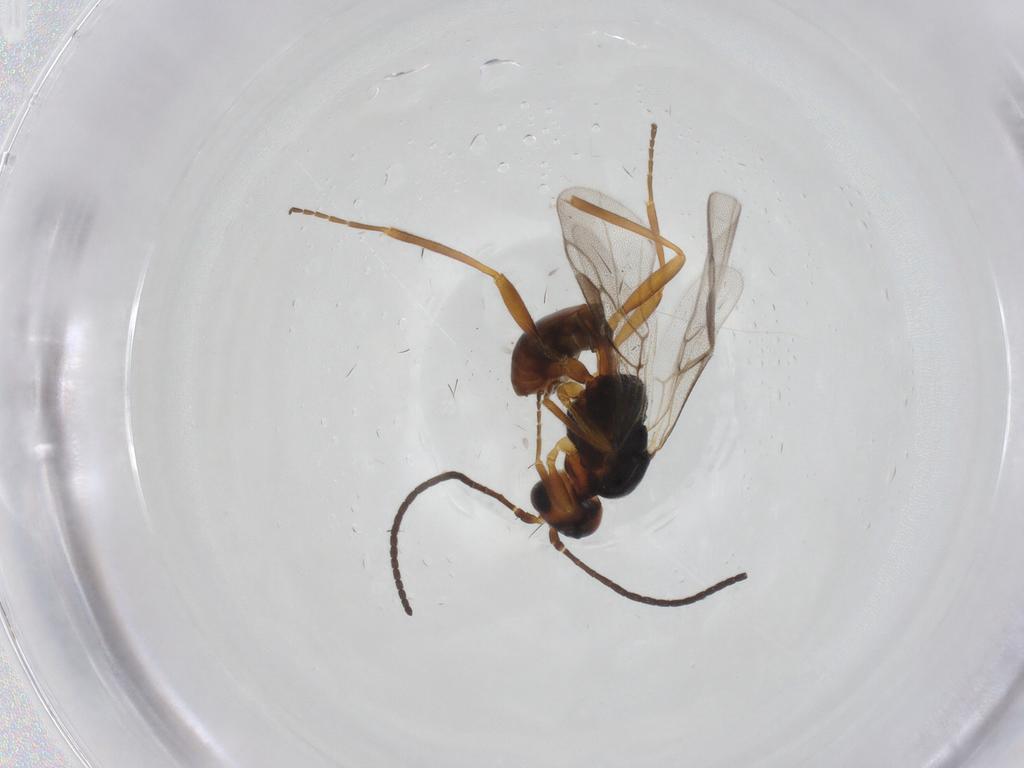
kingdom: Animalia
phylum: Arthropoda
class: Insecta
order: Hymenoptera
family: Braconidae
